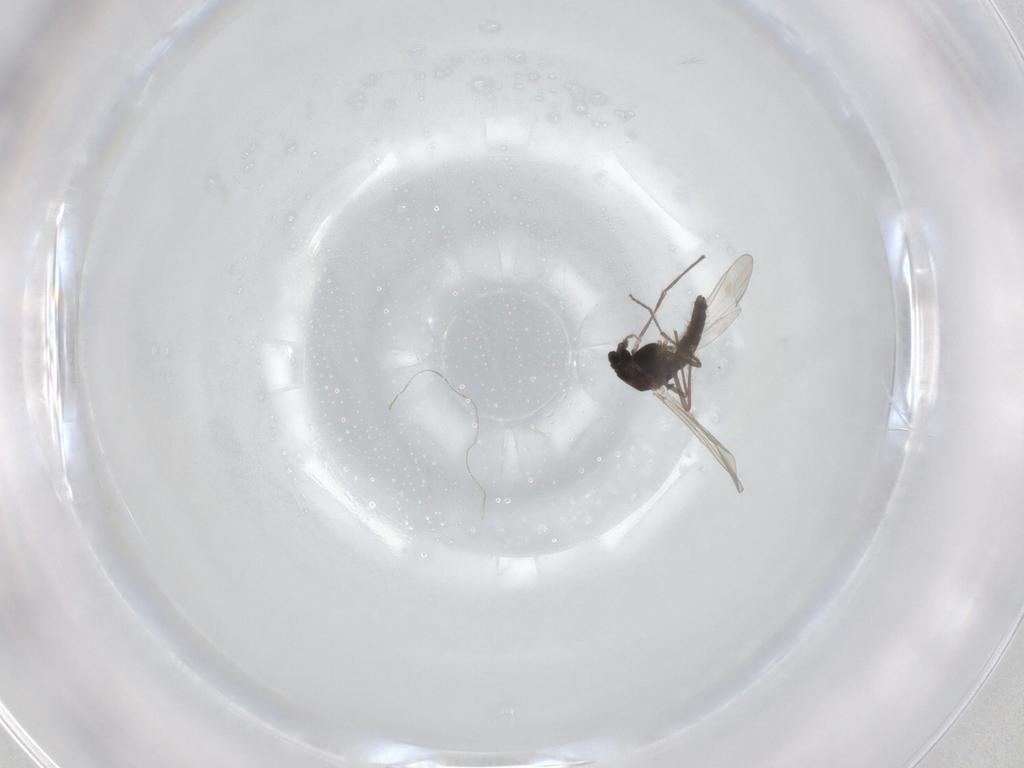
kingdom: Animalia
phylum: Arthropoda
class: Insecta
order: Diptera
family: Chironomidae
